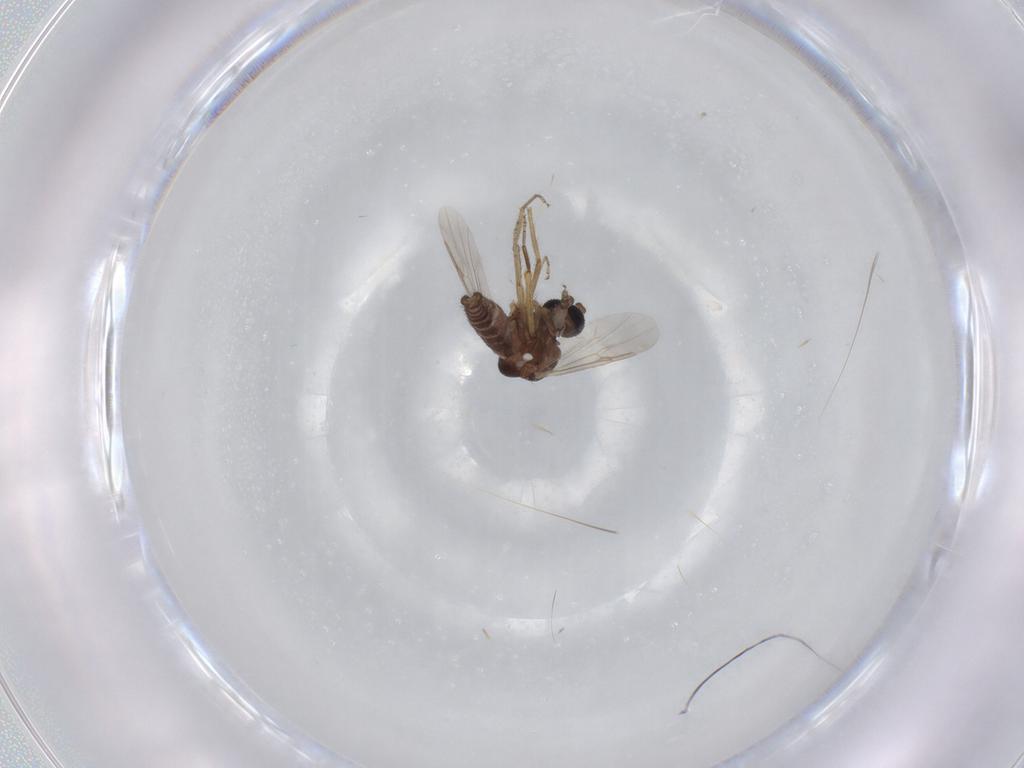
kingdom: Animalia
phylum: Arthropoda
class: Insecta
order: Diptera
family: Ceratopogonidae
